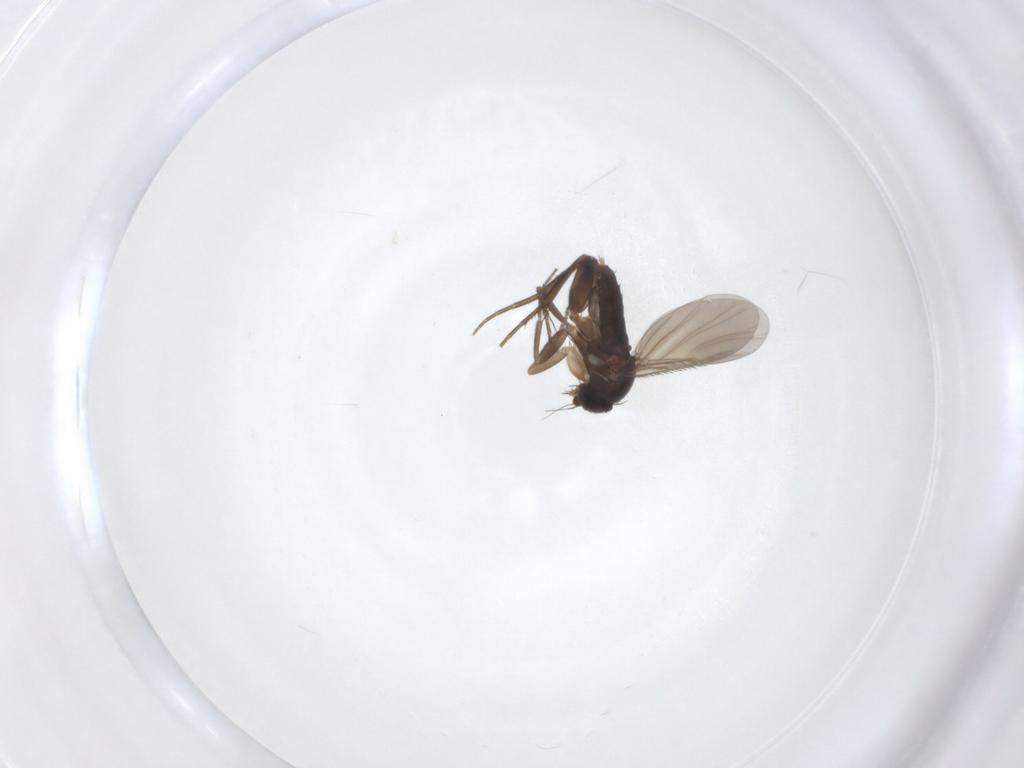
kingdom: Animalia
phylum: Arthropoda
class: Insecta
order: Diptera
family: Phoridae
